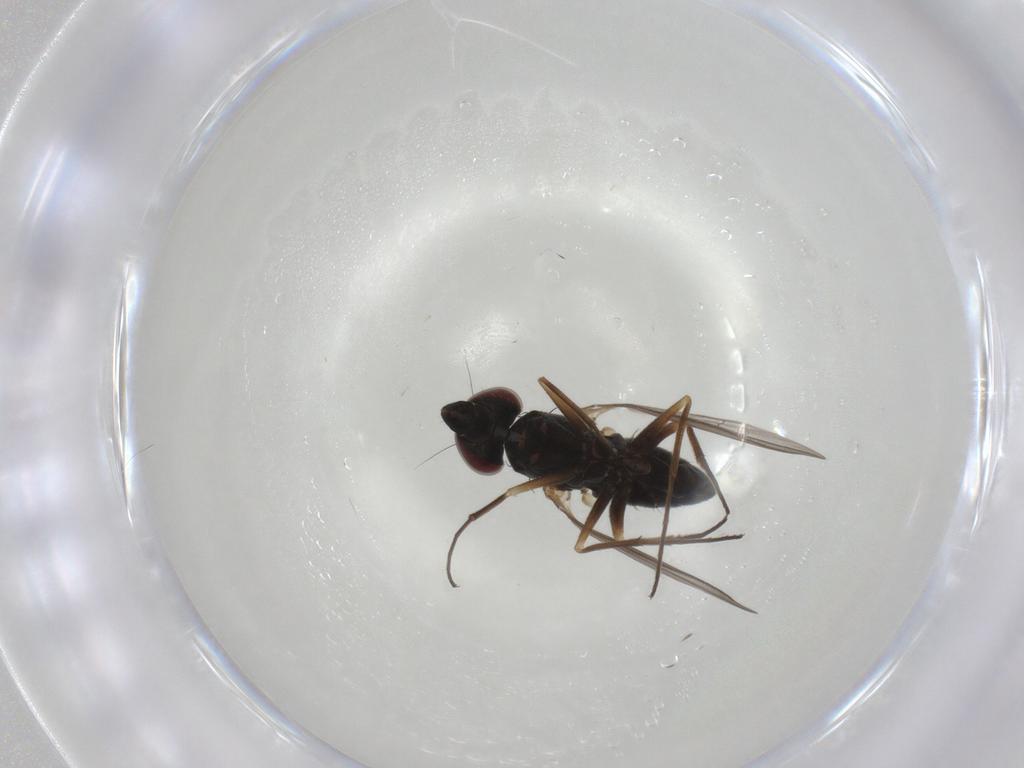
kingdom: Animalia
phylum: Arthropoda
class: Insecta
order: Diptera
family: Dolichopodidae
